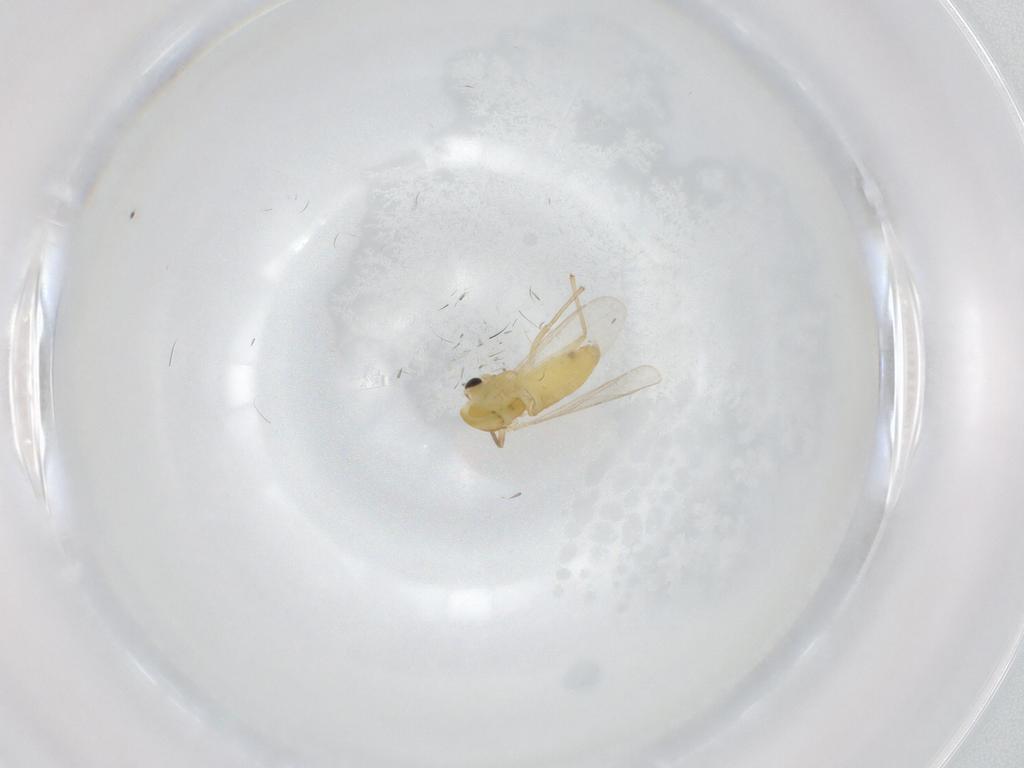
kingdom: Animalia
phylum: Arthropoda
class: Insecta
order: Diptera
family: Chironomidae
